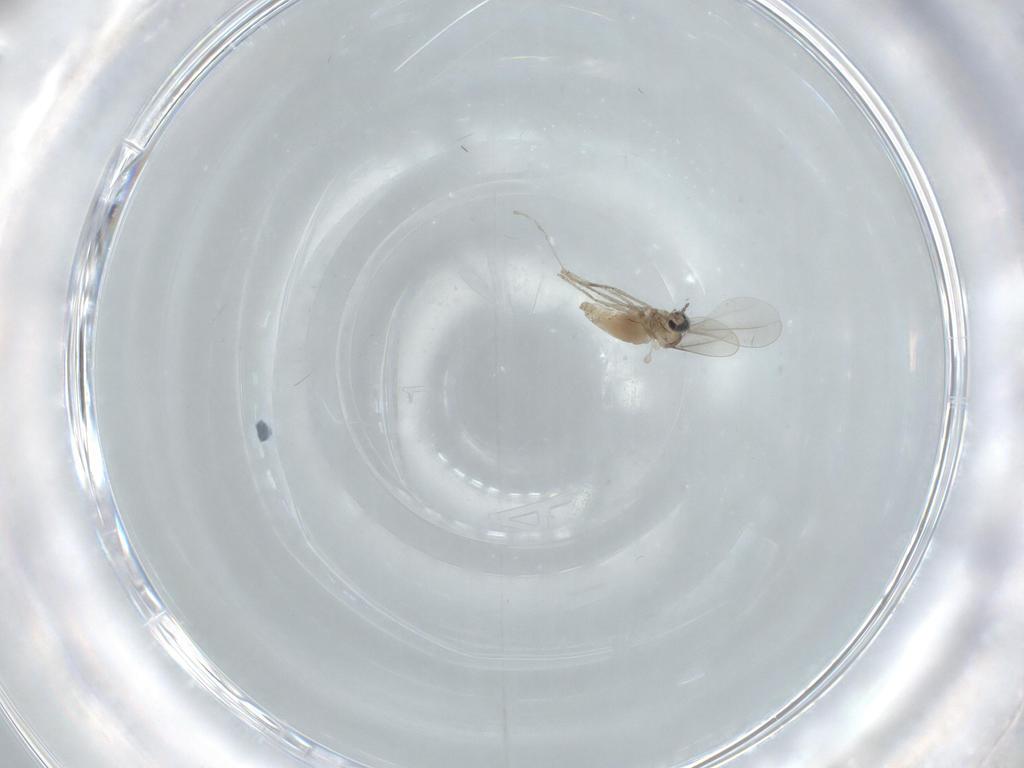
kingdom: Animalia
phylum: Arthropoda
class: Insecta
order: Diptera
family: Cecidomyiidae
